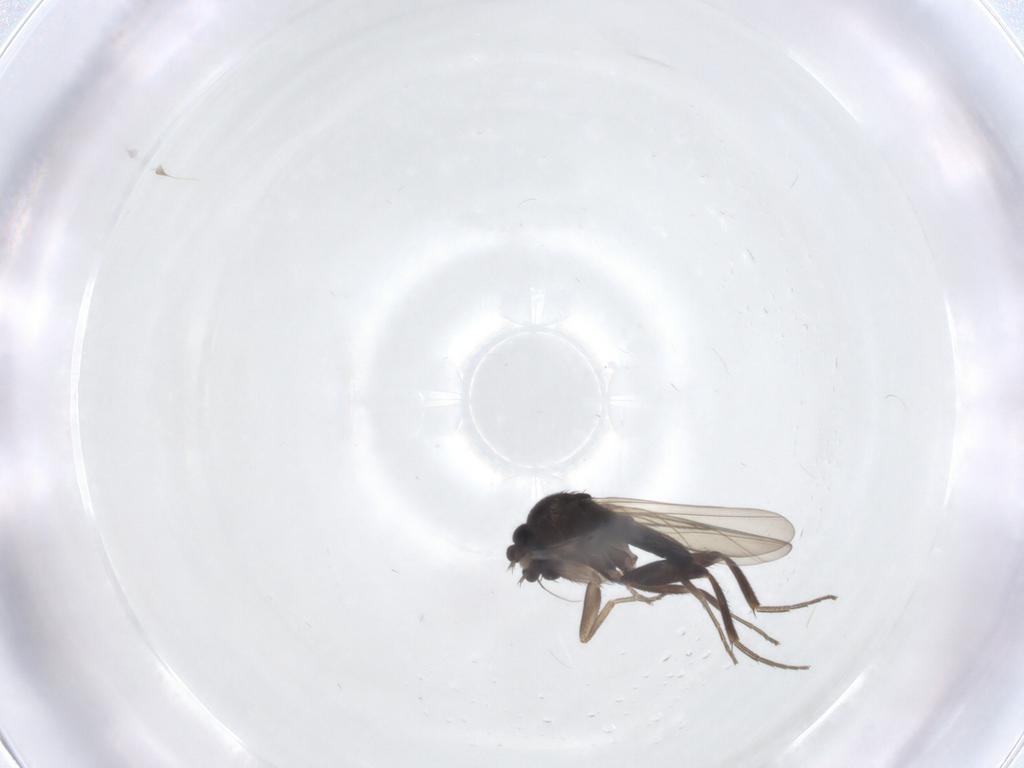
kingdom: Animalia
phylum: Arthropoda
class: Insecta
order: Diptera
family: Phoridae
